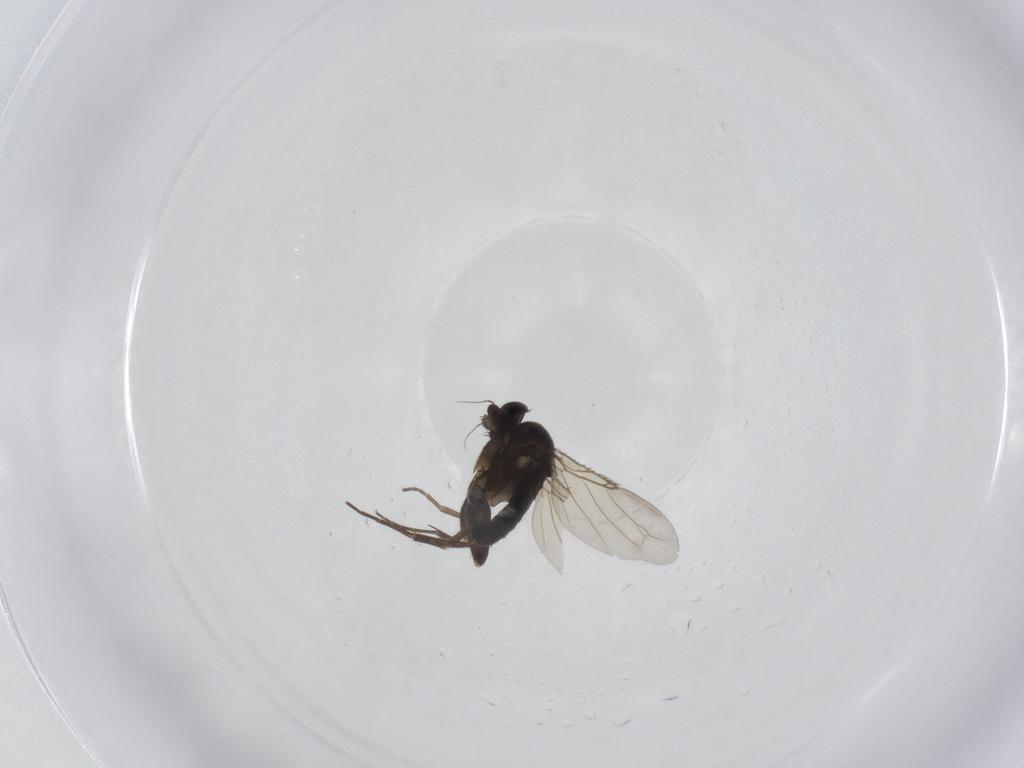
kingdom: Animalia
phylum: Arthropoda
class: Insecta
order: Diptera
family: Phoridae
